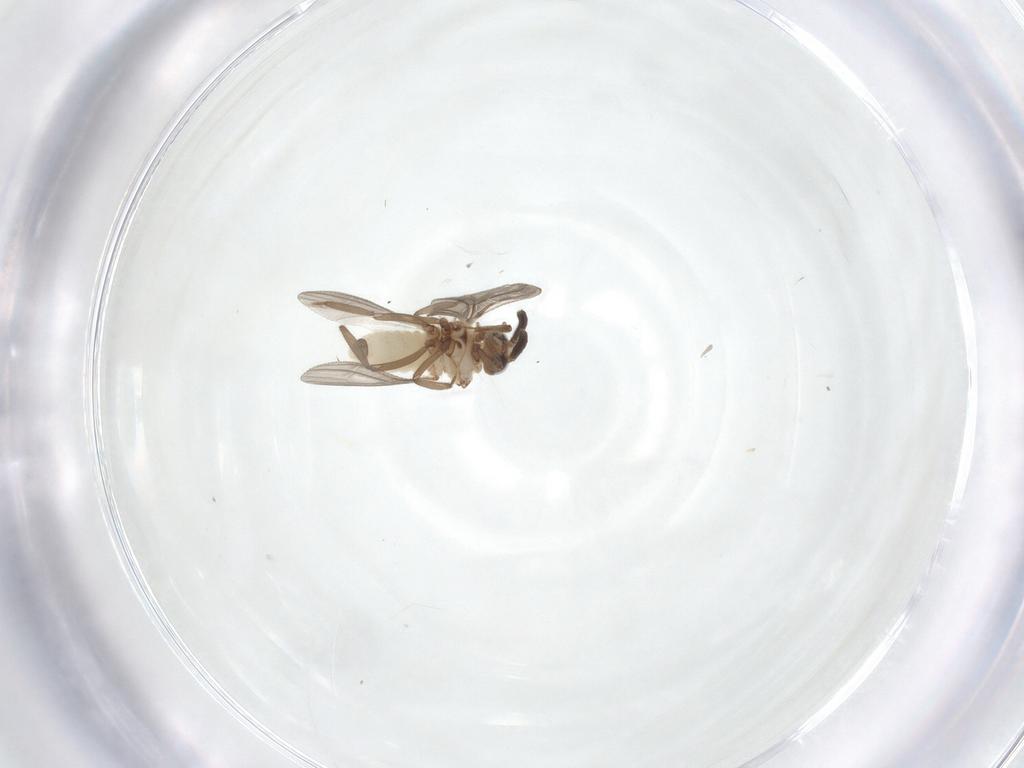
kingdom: Animalia
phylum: Arthropoda
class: Insecta
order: Neuroptera
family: Coniopterygidae
